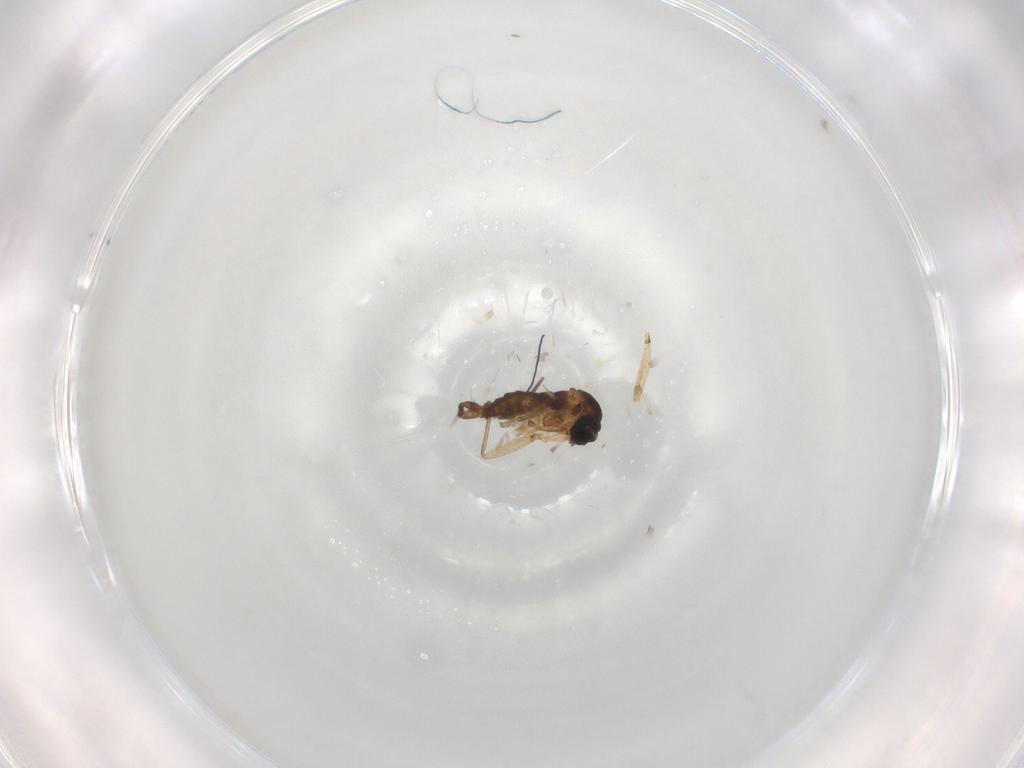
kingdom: Animalia
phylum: Arthropoda
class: Insecta
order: Diptera
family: Sciaridae
